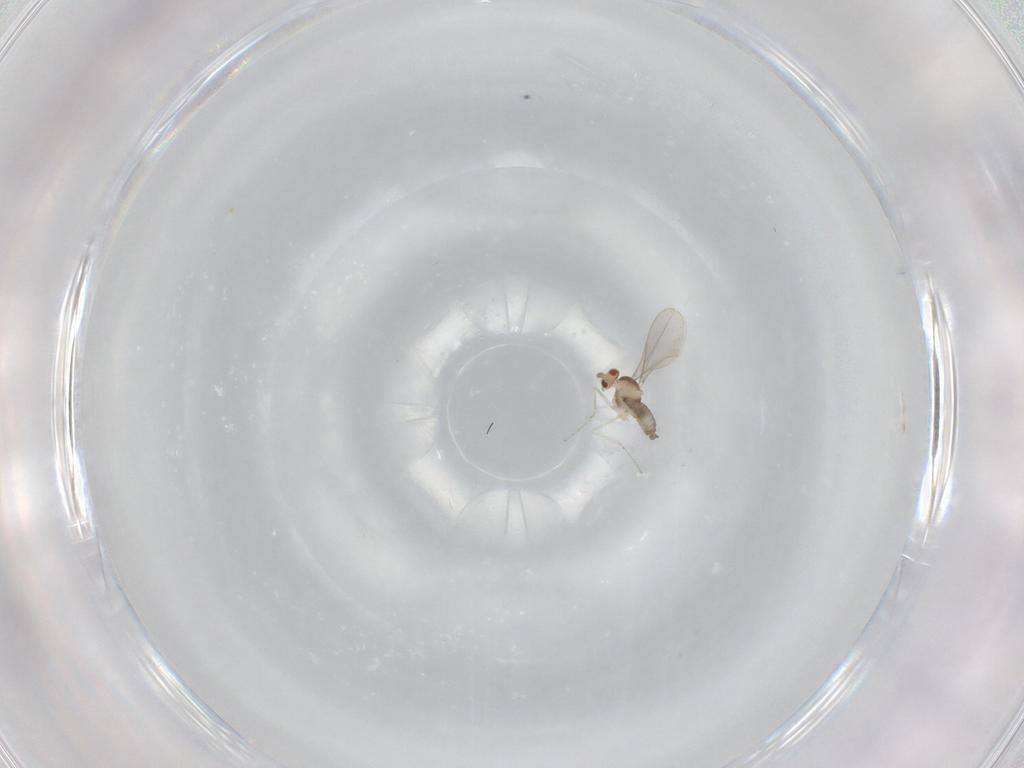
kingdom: Animalia
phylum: Arthropoda
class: Insecta
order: Diptera
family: Cecidomyiidae
